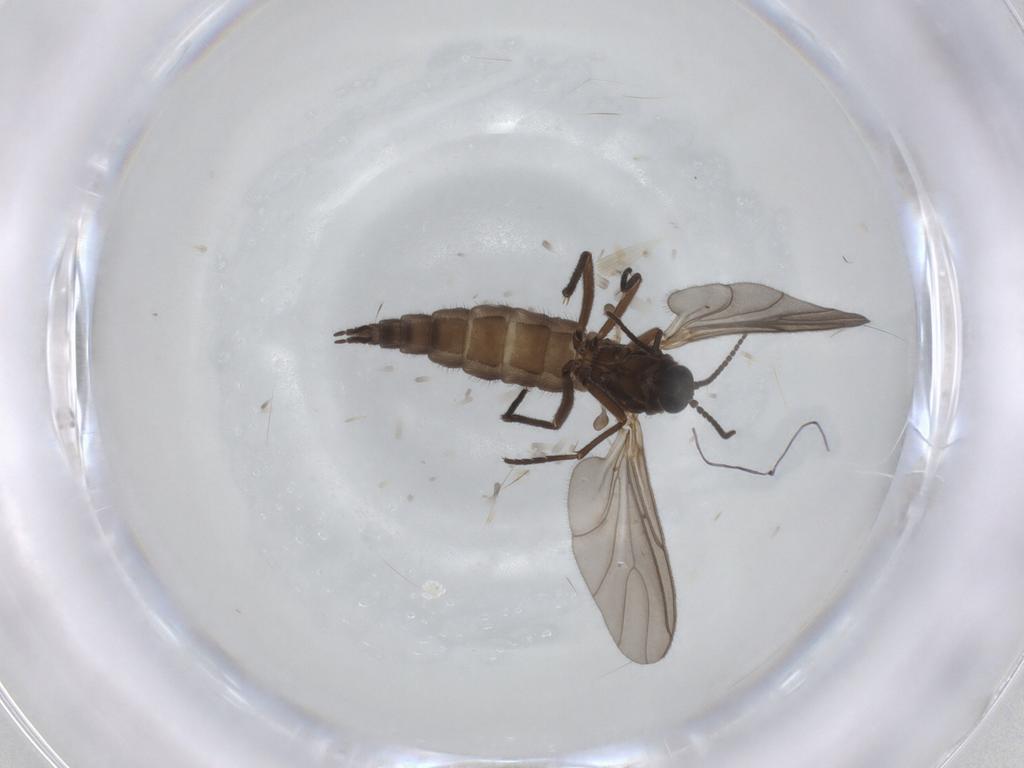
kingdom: Animalia
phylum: Arthropoda
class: Insecta
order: Diptera
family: Sciaridae
